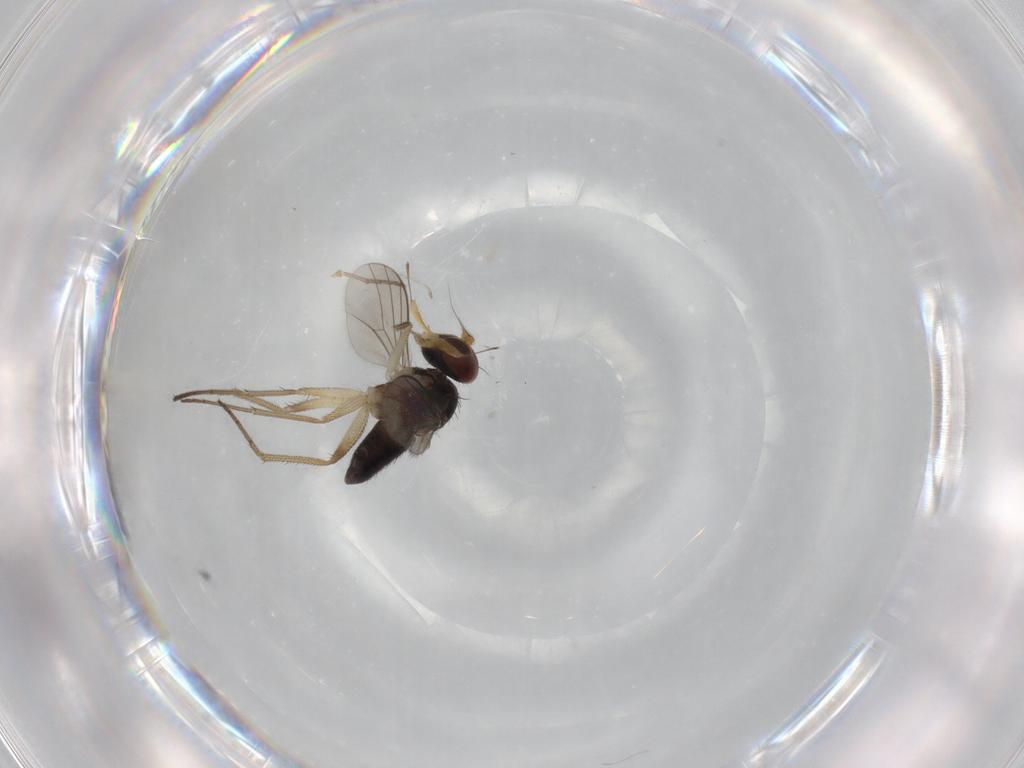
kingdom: Animalia
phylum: Arthropoda
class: Insecta
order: Diptera
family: Dolichopodidae
